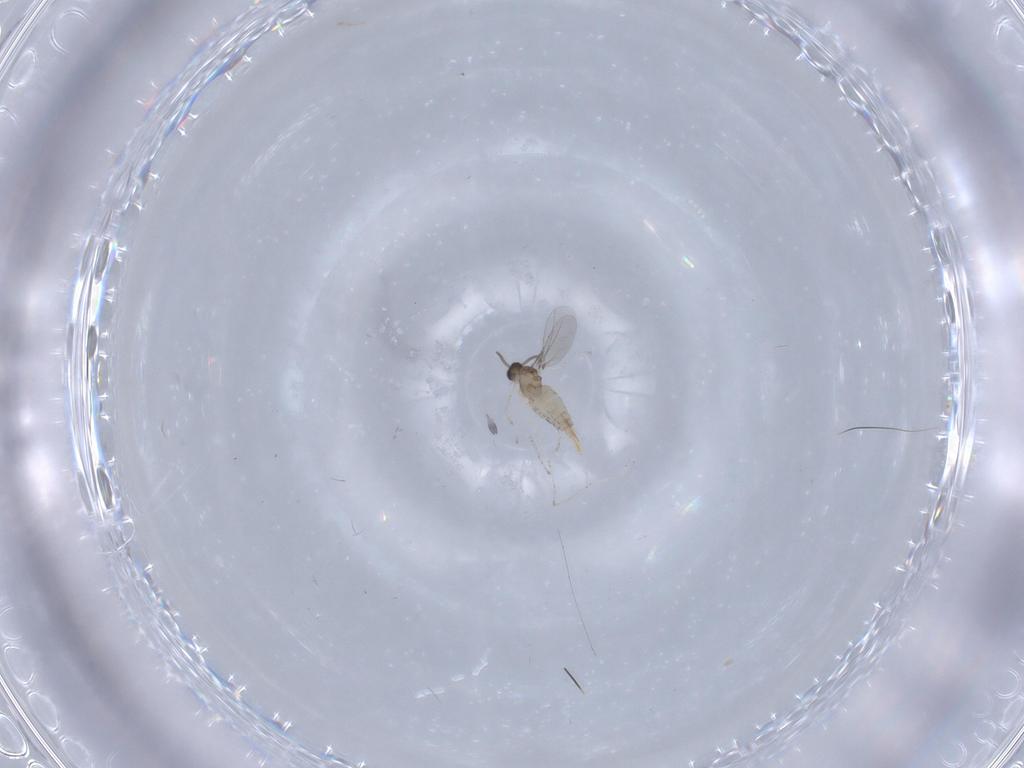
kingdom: Animalia
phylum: Arthropoda
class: Insecta
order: Diptera
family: Cecidomyiidae
